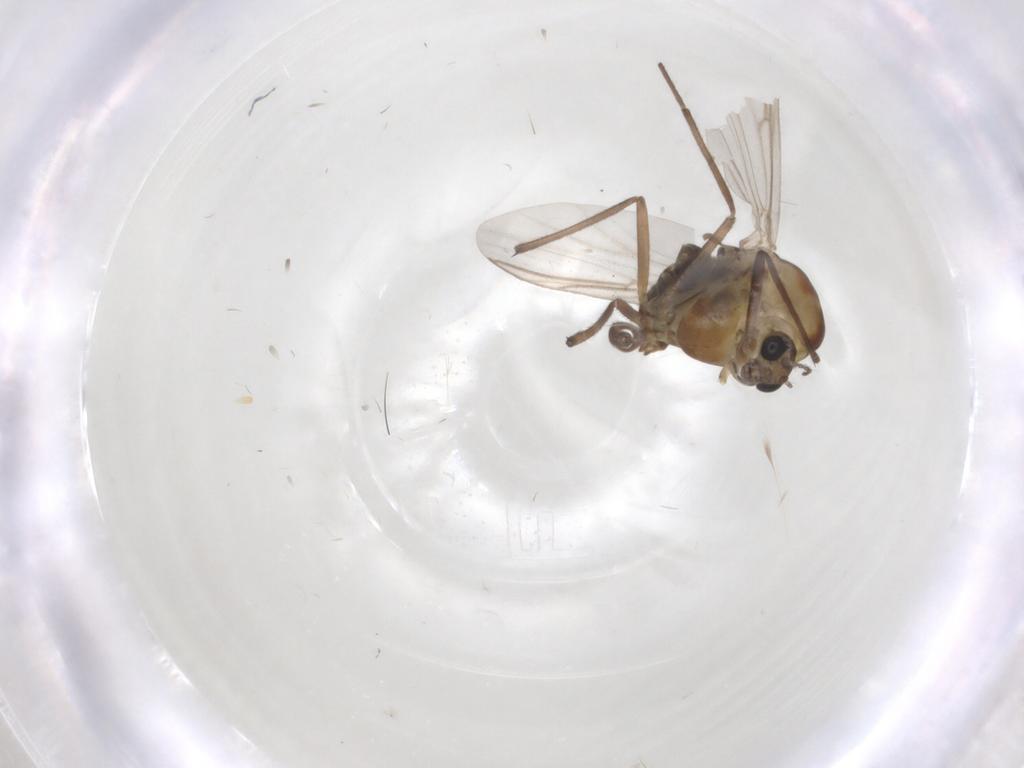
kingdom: Animalia
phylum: Arthropoda
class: Insecta
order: Diptera
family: Chironomidae
